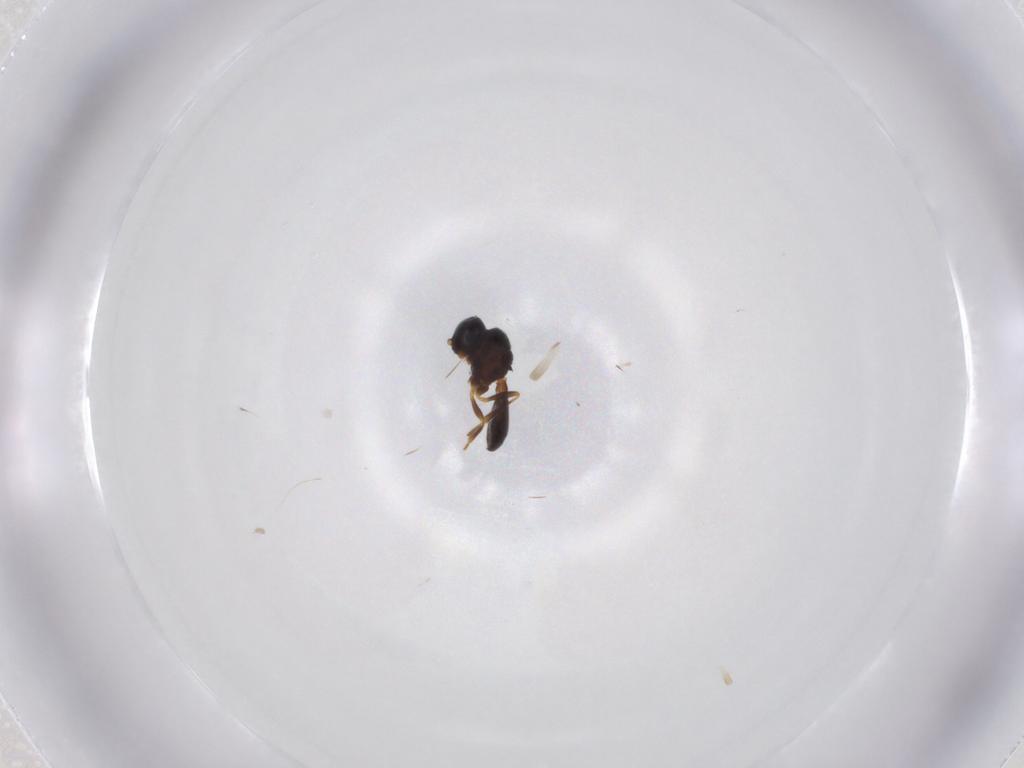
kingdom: Animalia
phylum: Arthropoda
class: Insecta
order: Hymenoptera
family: Scelionidae
